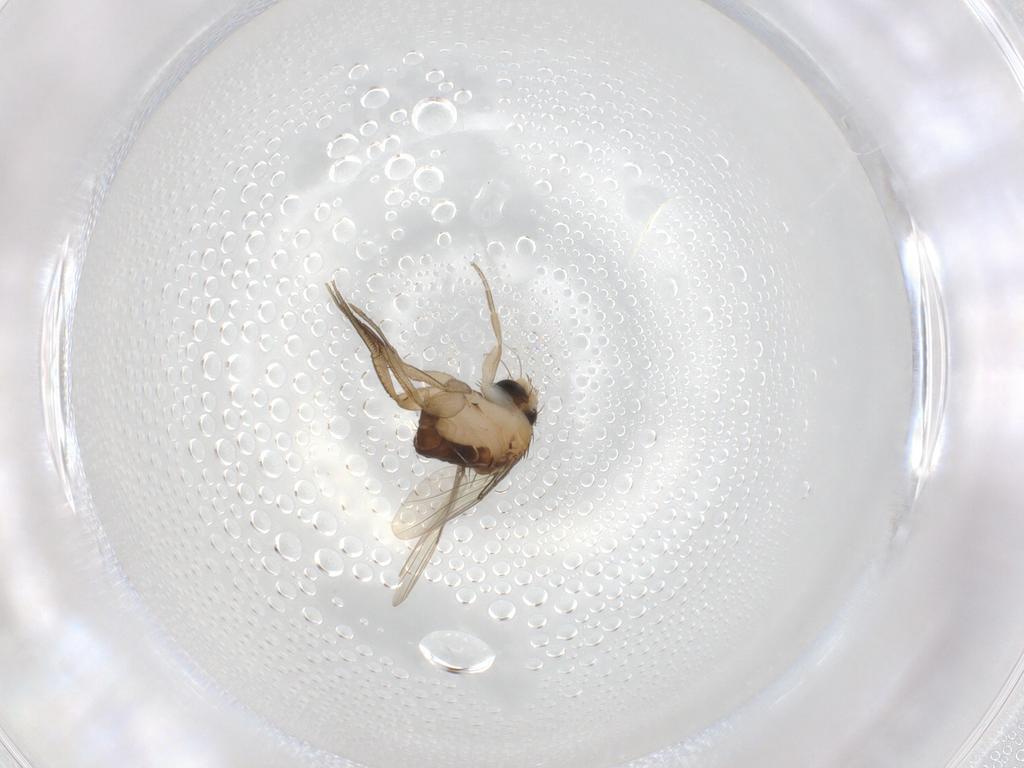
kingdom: Animalia
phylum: Arthropoda
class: Insecta
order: Diptera
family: Phoridae
